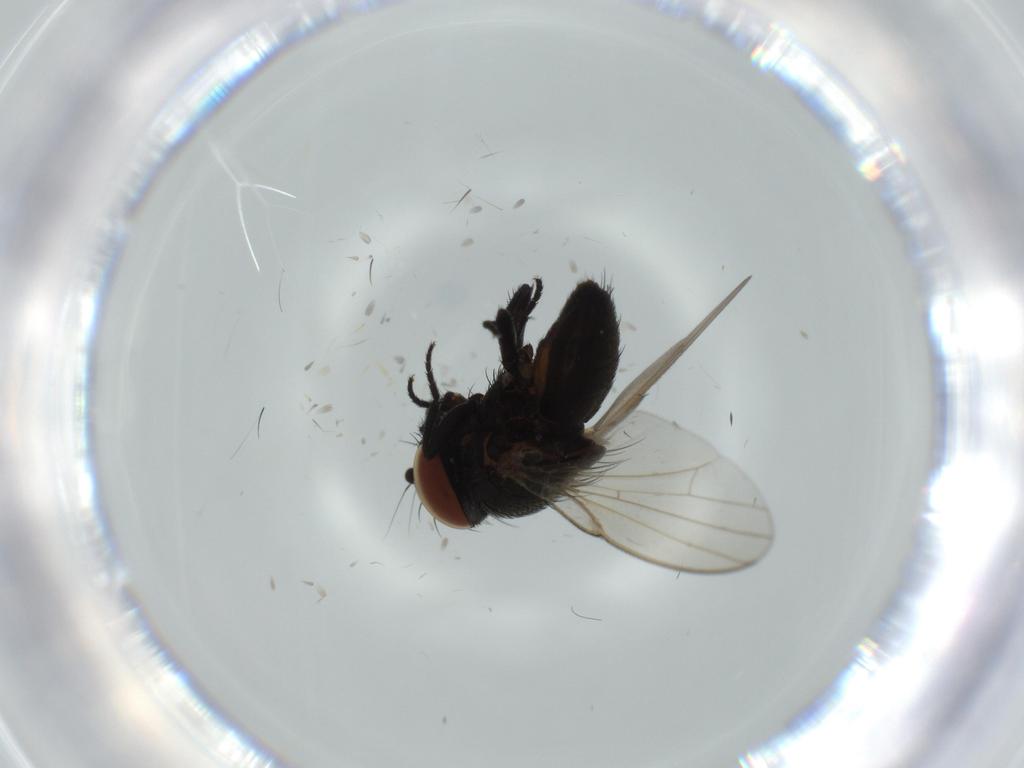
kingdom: Animalia
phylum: Arthropoda
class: Insecta
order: Diptera
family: Milichiidae
